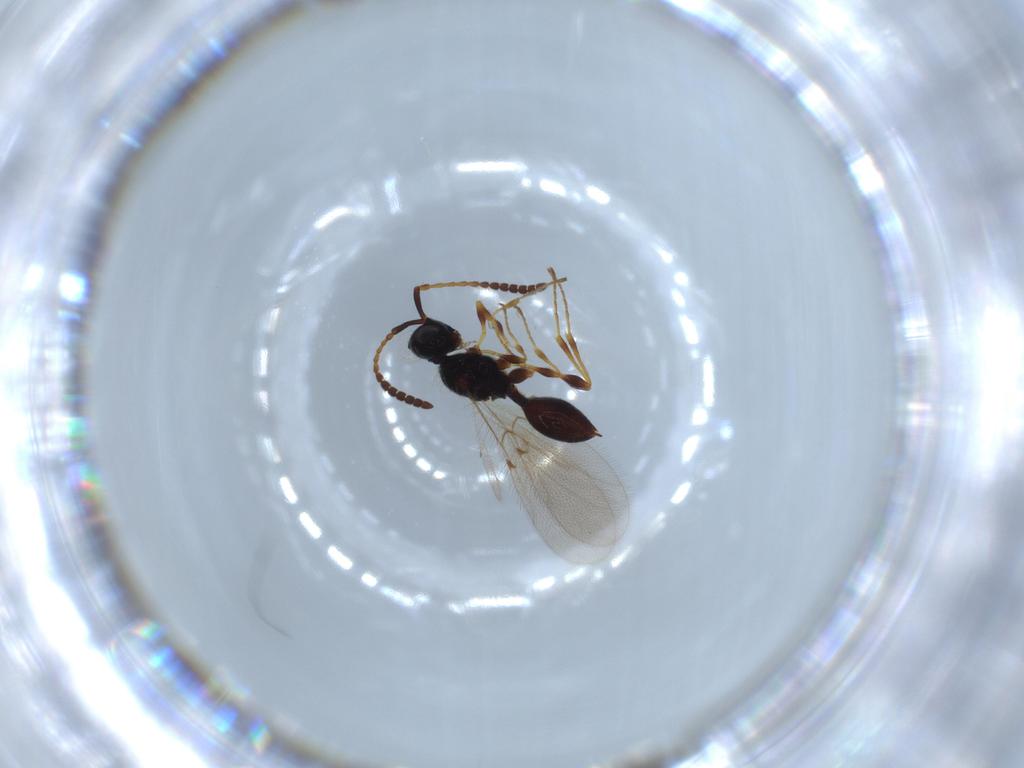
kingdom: Animalia
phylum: Arthropoda
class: Insecta
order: Hymenoptera
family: Diapriidae
